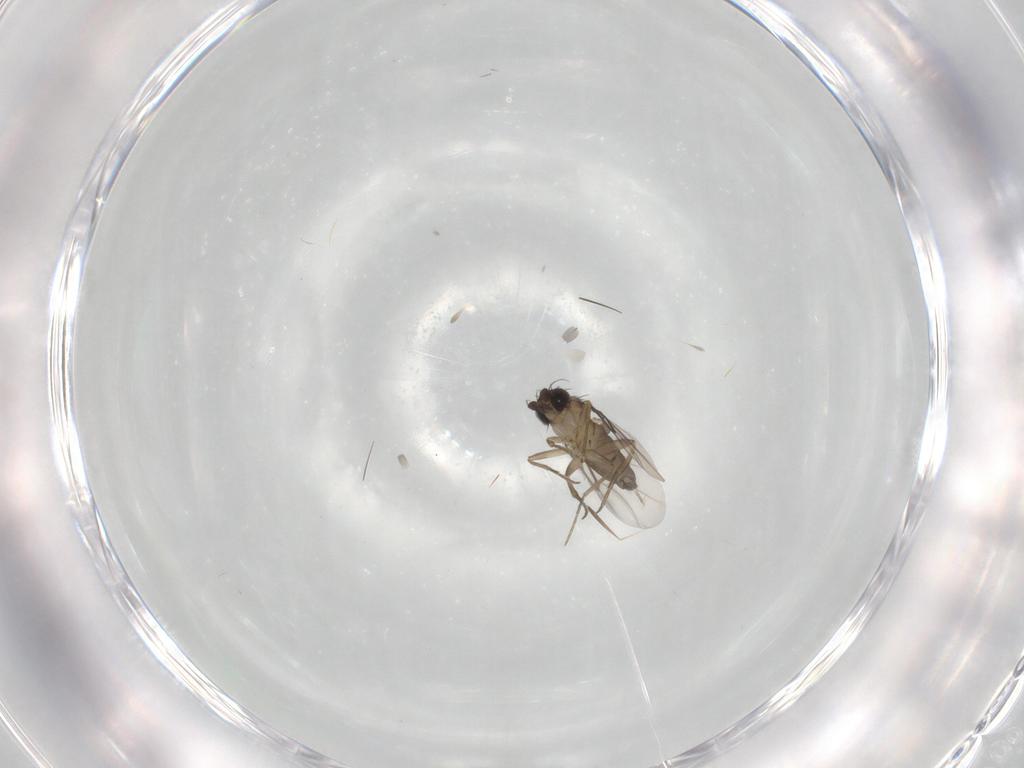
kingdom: Animalia
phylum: Arthropoda
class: Insecta
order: Diptera
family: Phoridae
